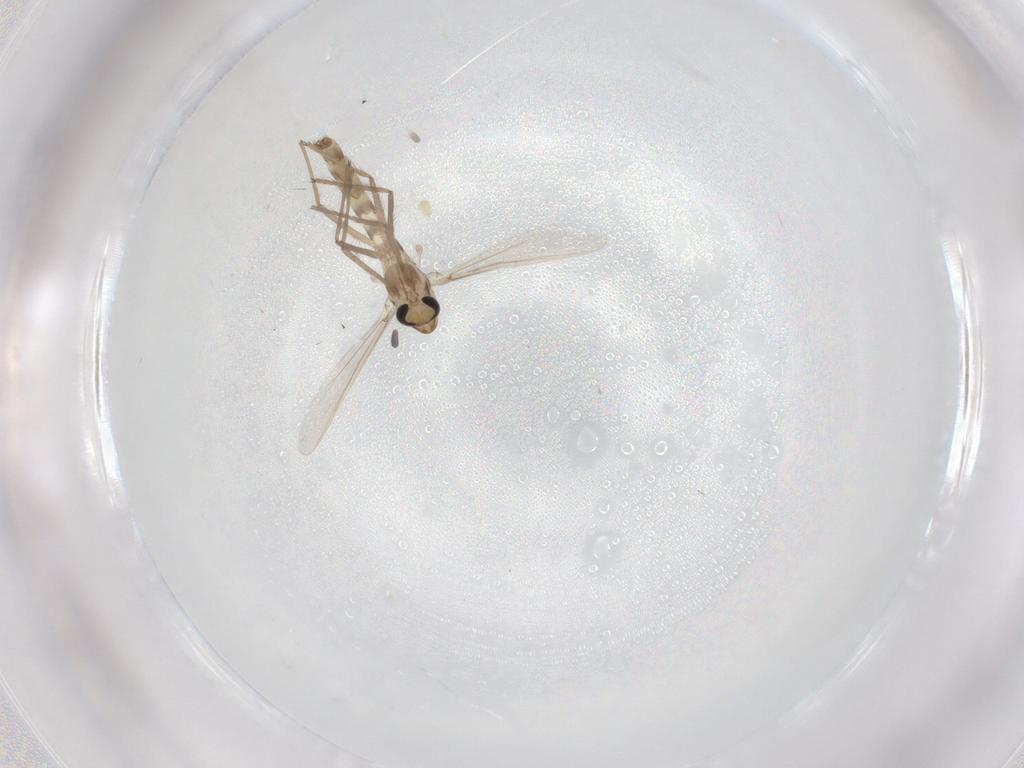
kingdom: Animalia
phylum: Arthropoda
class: Insecta
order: Diptera
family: Chironomidae
